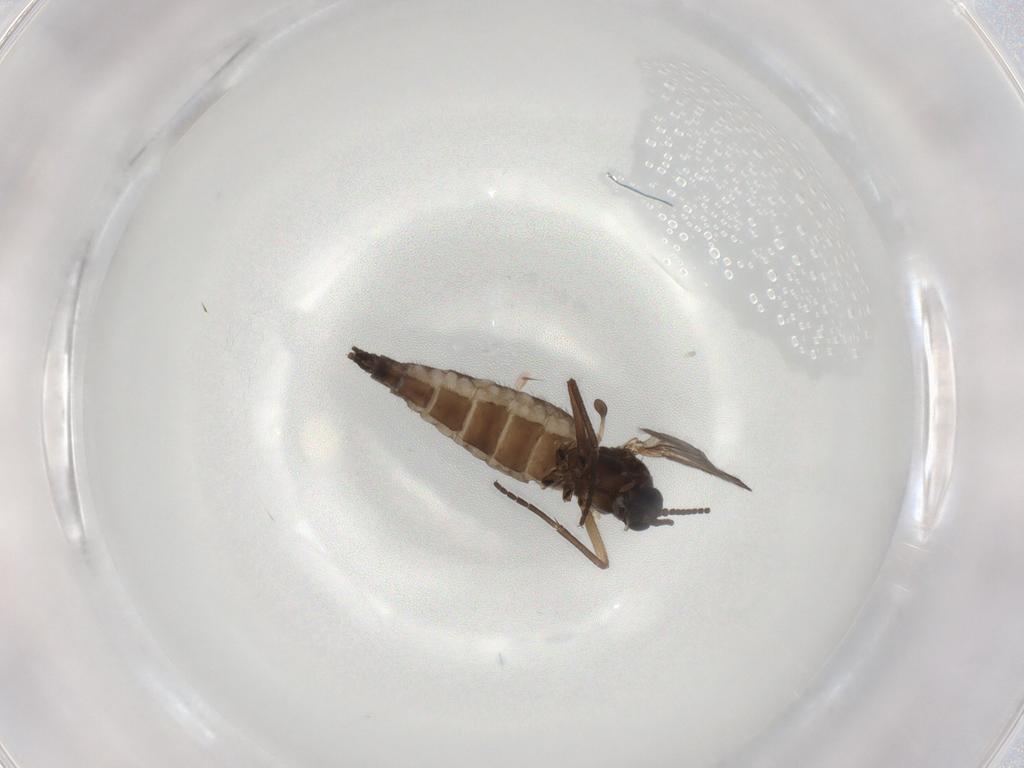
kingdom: Animalia
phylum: Arthropoda
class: Insecta
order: Diptera
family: Sciaridae
